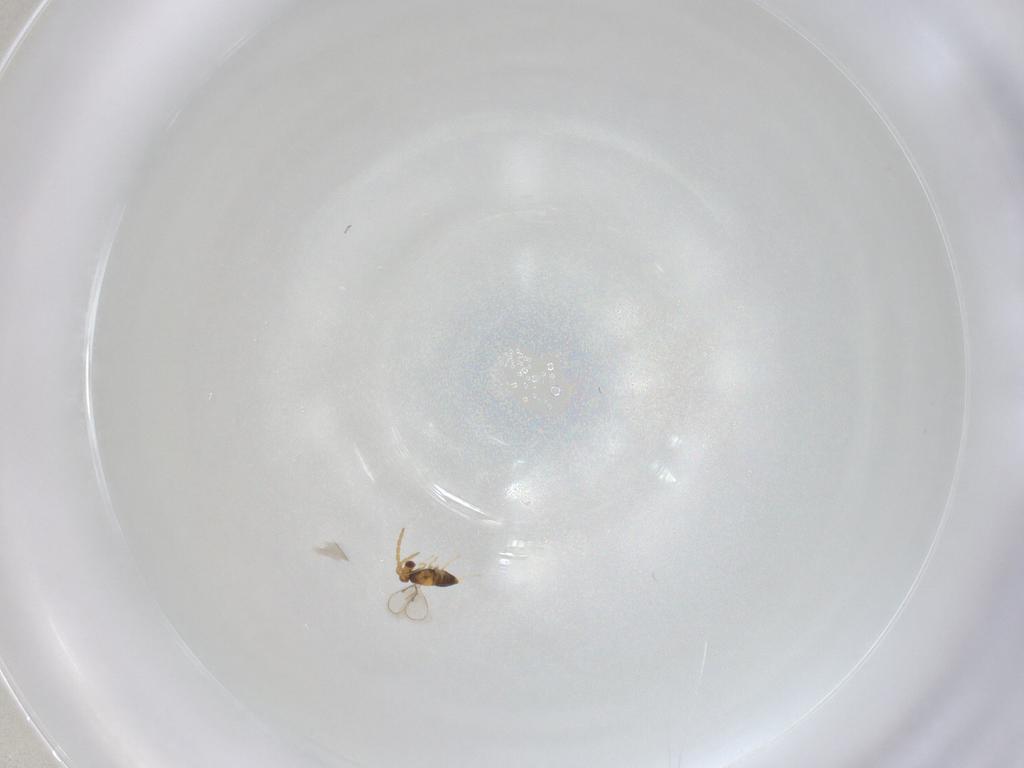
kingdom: Animalia
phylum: Arthropoda
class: Insecta
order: Hymenoptera
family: Aphelinidae
